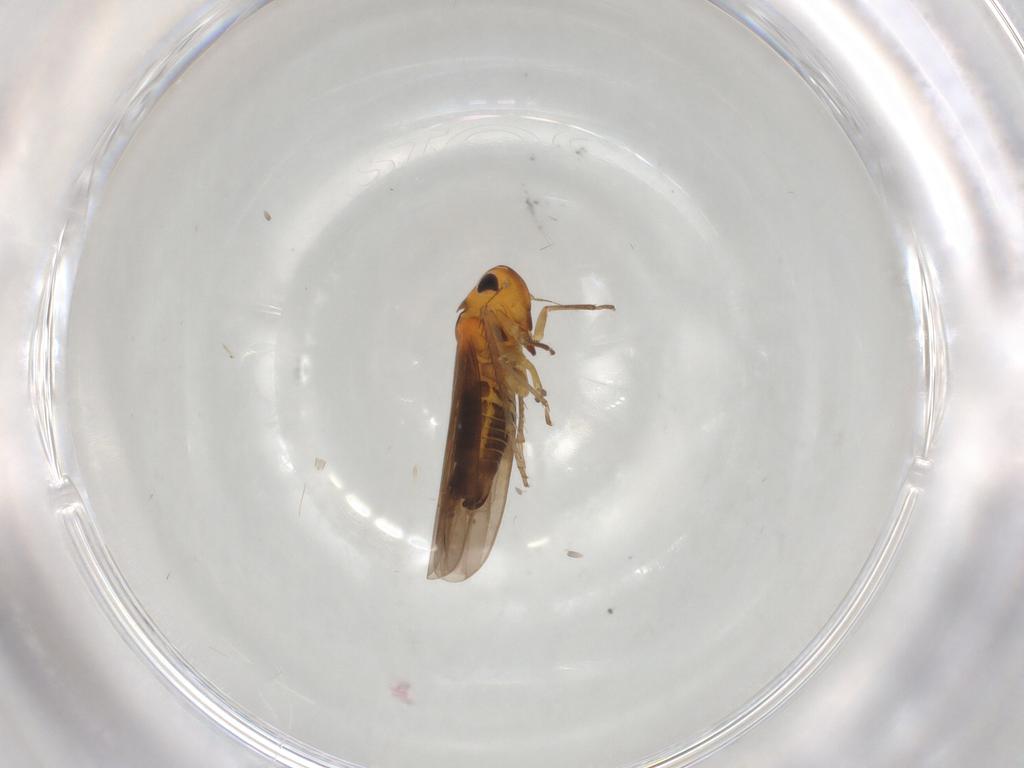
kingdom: Animalia
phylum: Arthropoda
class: Insecta
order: Hemiptera
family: Cicadellidae
